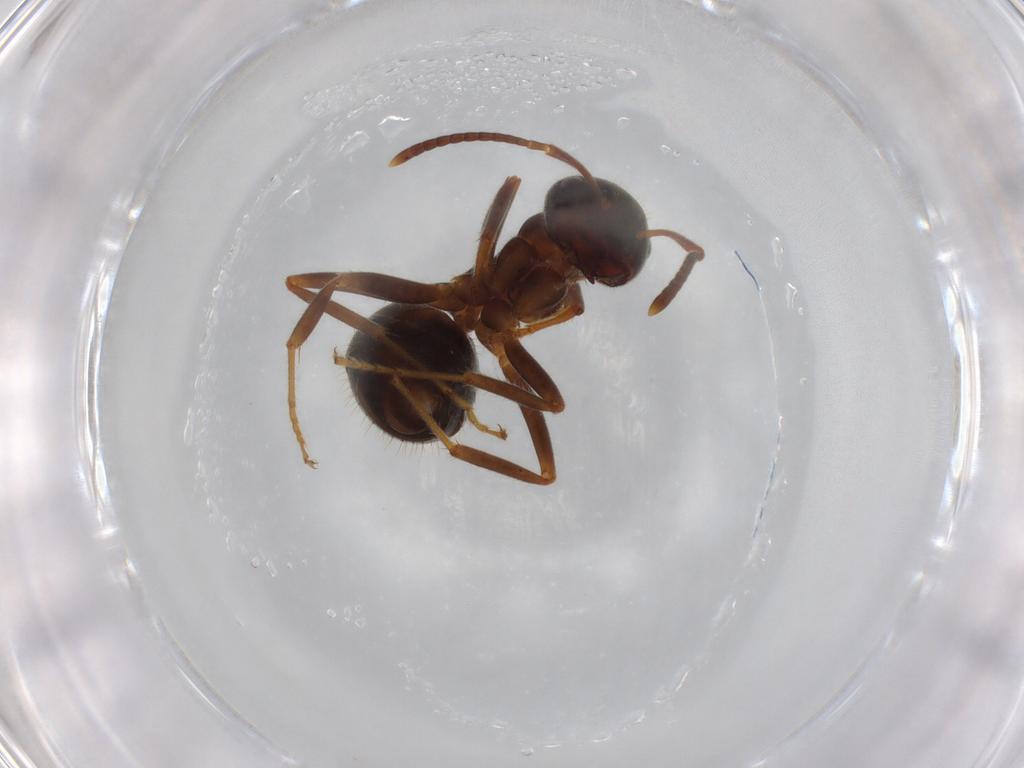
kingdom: Animalia
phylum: Arthropoda
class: Insecta
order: Hymenoptera
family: Formicidae
